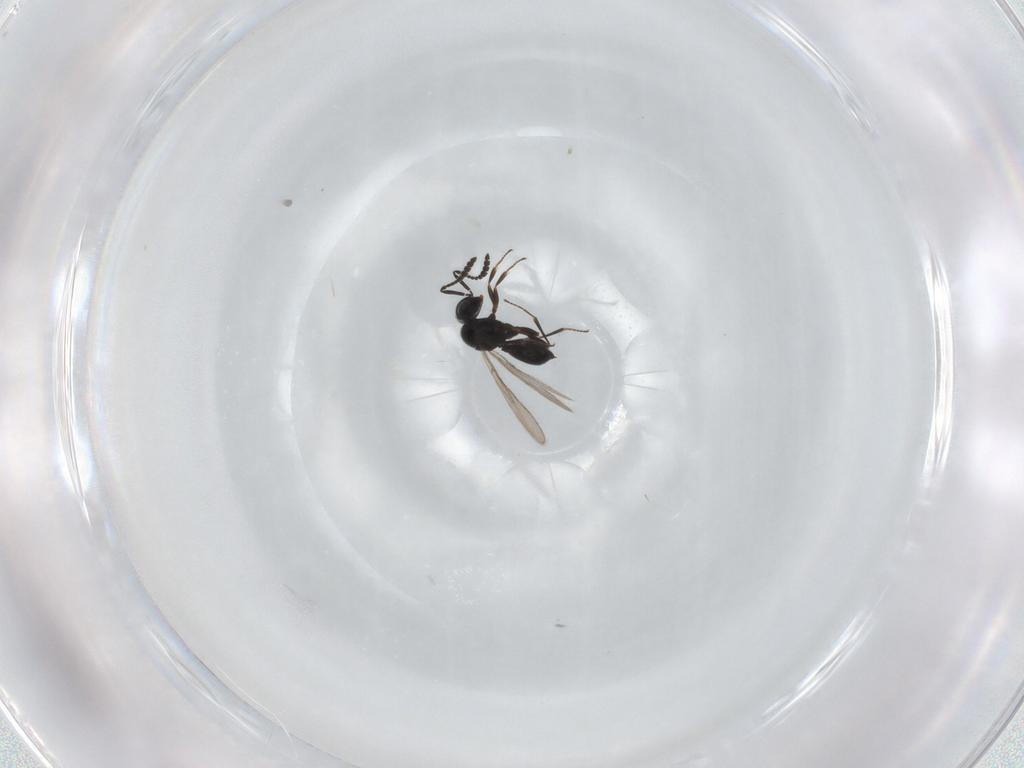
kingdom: Animalia
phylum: Arthropoda
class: Insecta
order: Hymenoptera
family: Scelionidae
